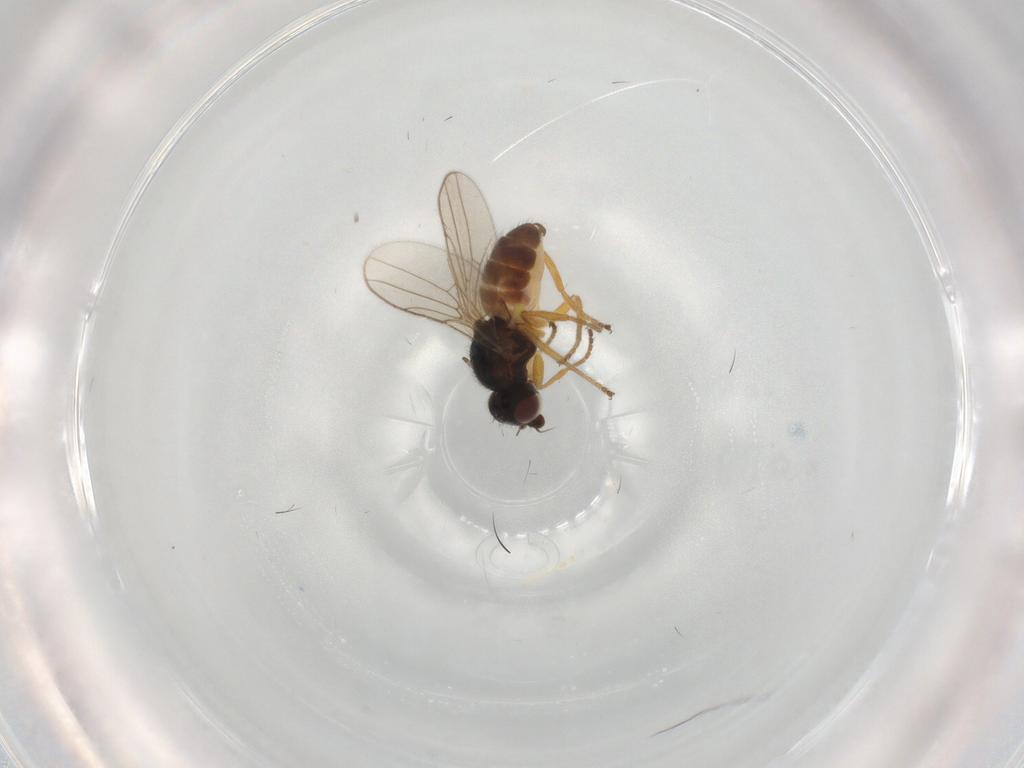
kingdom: Animalia
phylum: Arthropoda
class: Insecta
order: Diptera
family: Chloropidae
